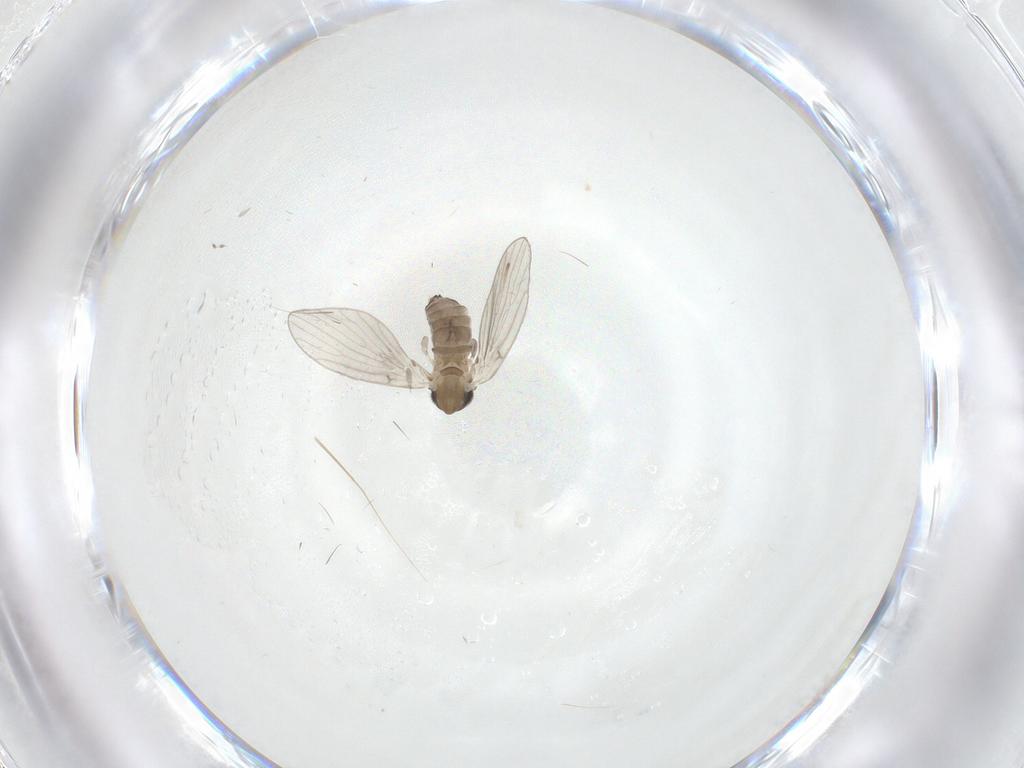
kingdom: Animalia
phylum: Arthropoda
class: Insecta
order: Diptera
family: Psychodidae
